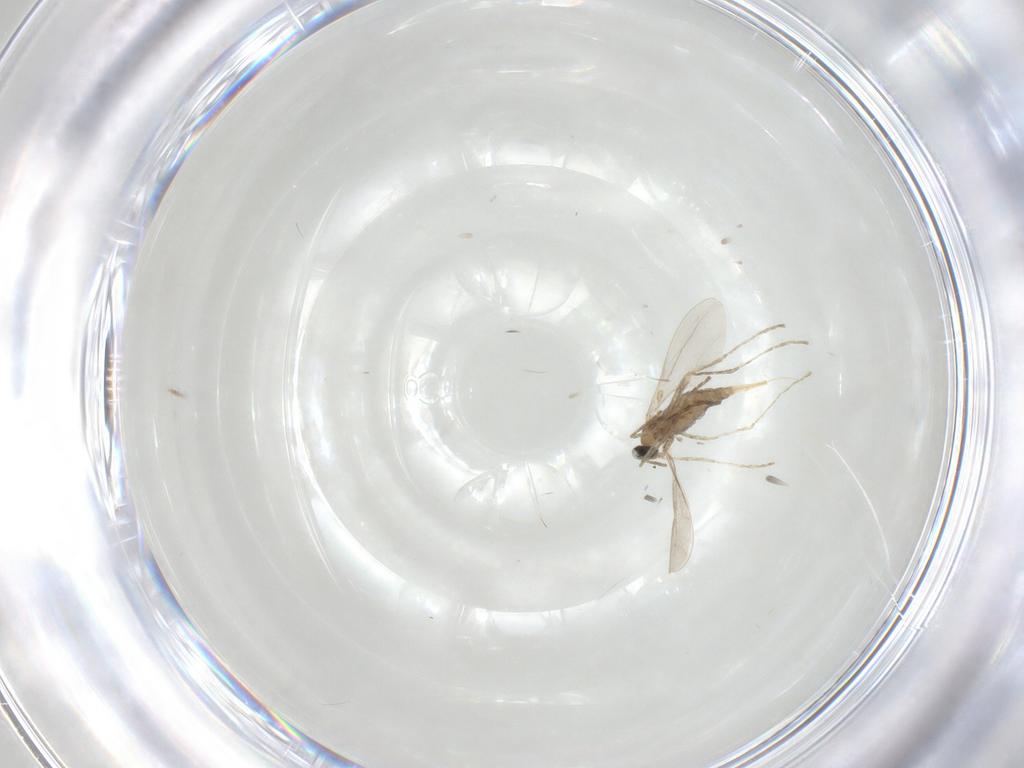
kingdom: Animalia
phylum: Arthropoda
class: Insecta
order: Diptera
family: Cecidomyiidae
